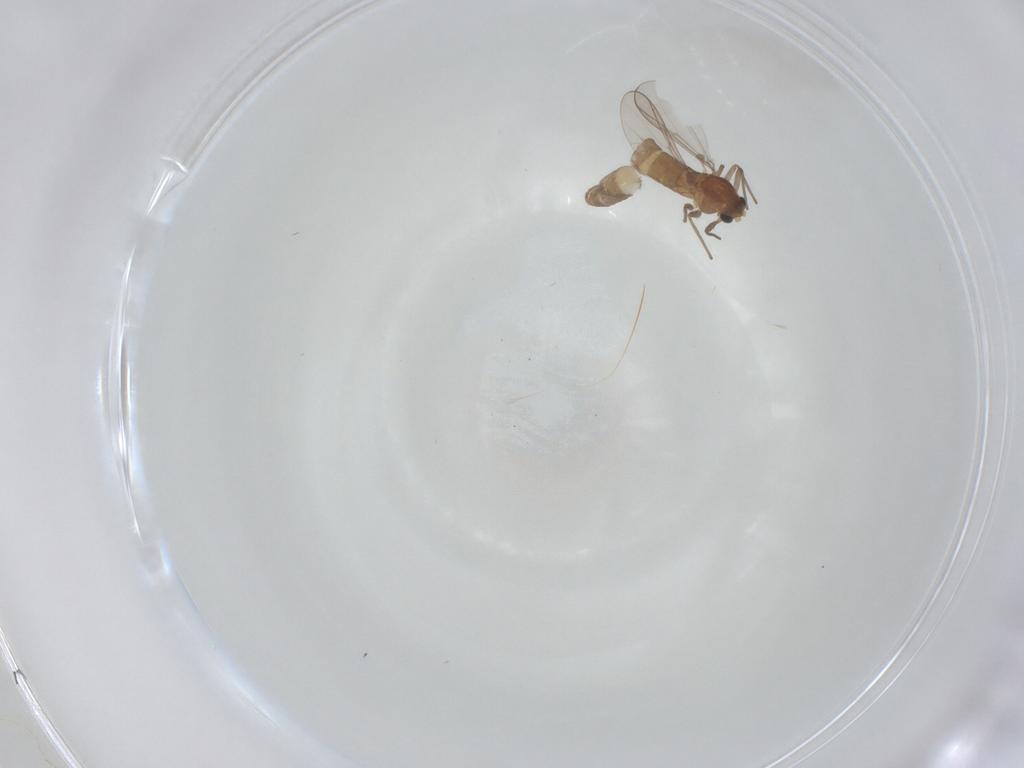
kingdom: Animalia
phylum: Arthropoda
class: Insecta
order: Diptera
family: Chironomidae
